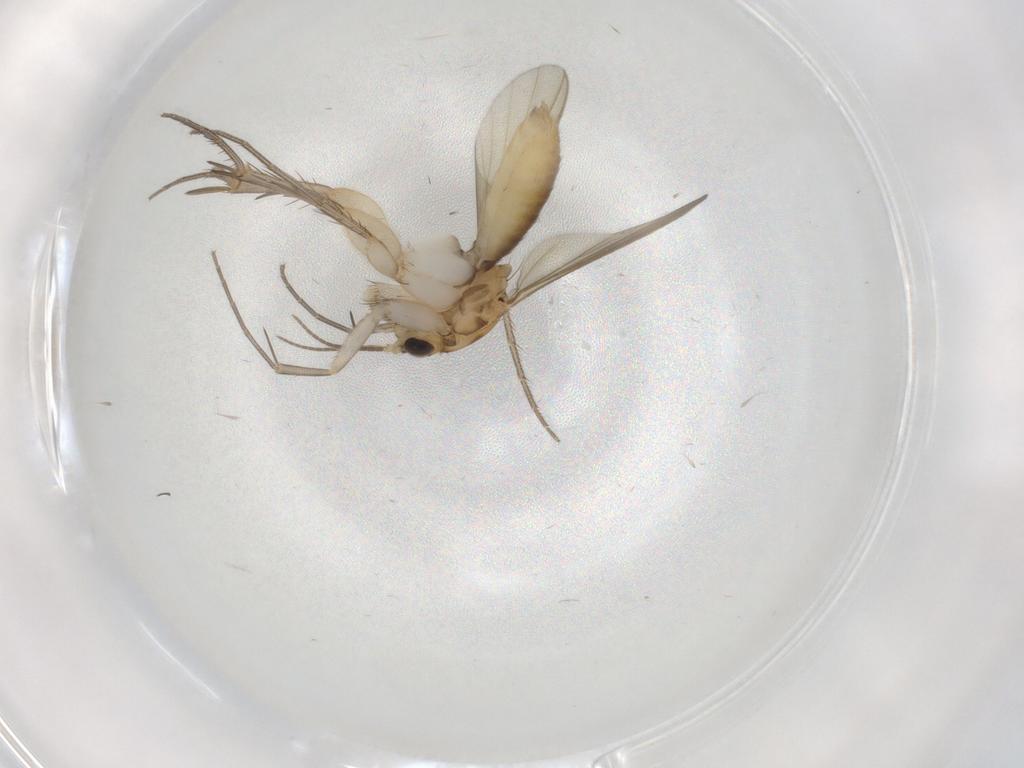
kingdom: Animalia
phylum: Arthropoda
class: Insecta
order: Diptera
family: Mycetophilidae
